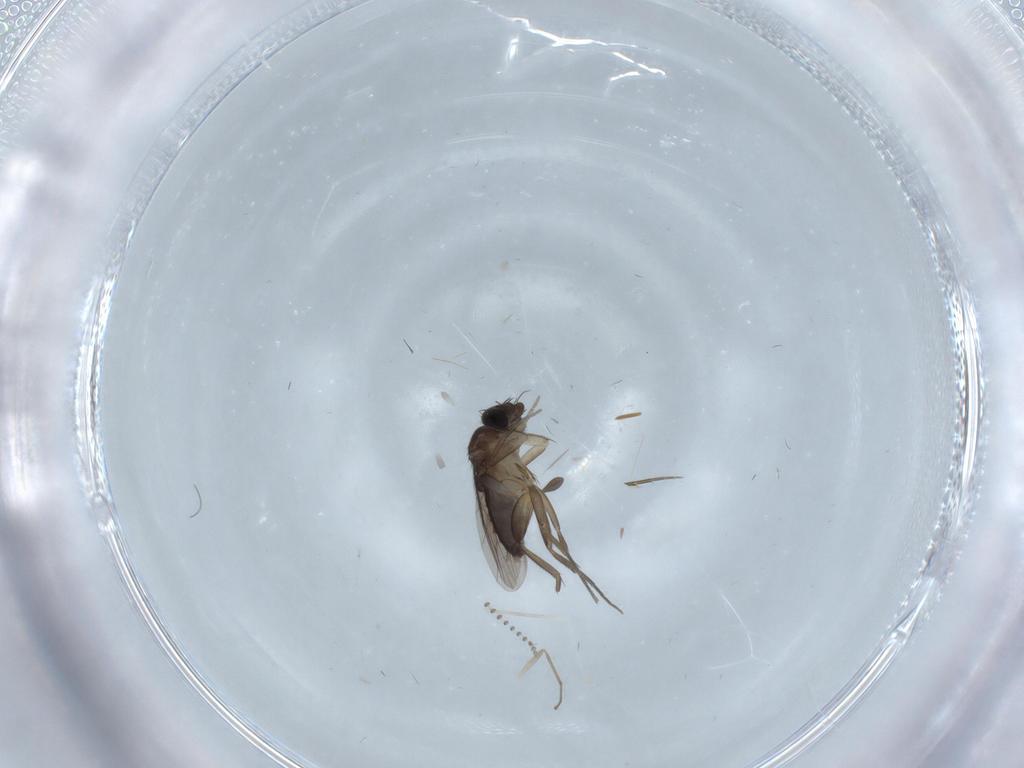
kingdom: Animalia
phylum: Arthropoda
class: Insecta
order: Diptera
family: Phoridae
